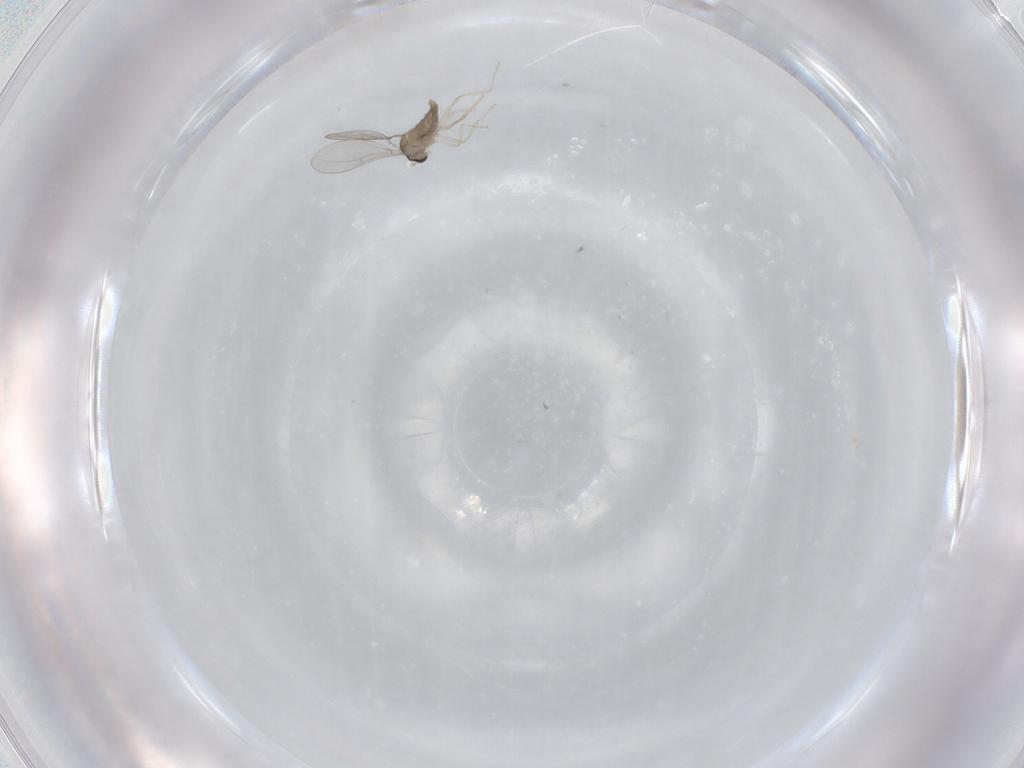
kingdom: Animalia
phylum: Arthropoda
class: Insecta
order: Diptera
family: Cecidomyiidae
